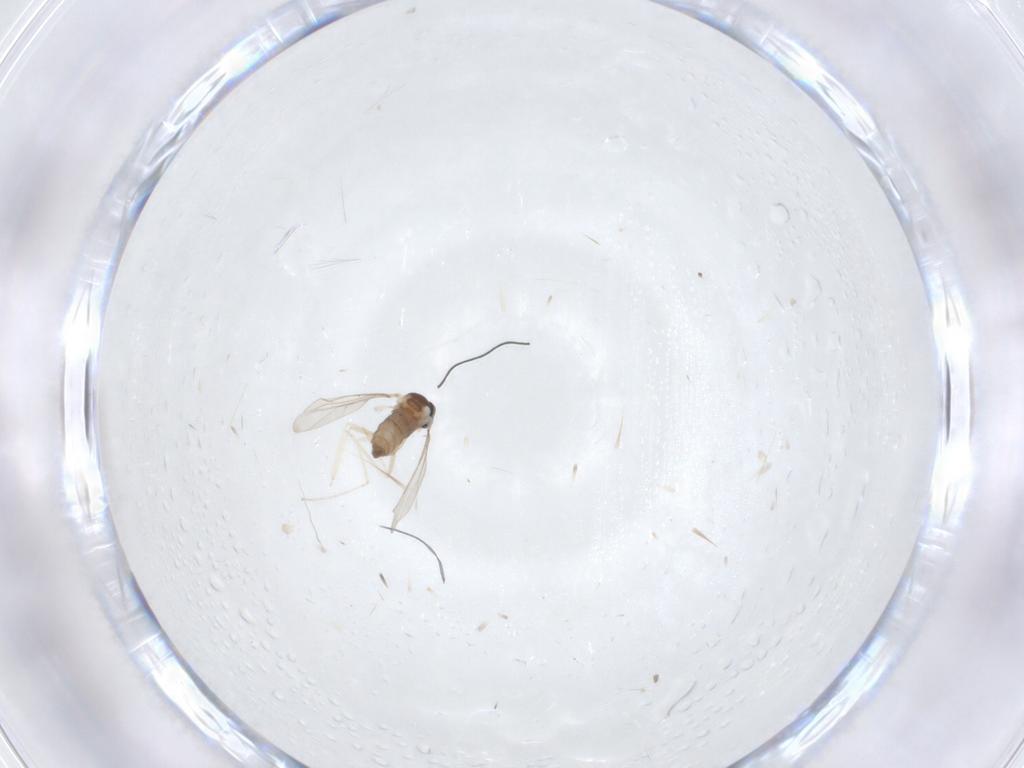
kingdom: Animalia
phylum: Arthropoda
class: Insecta
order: Diptera
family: Cecidomyiidae
